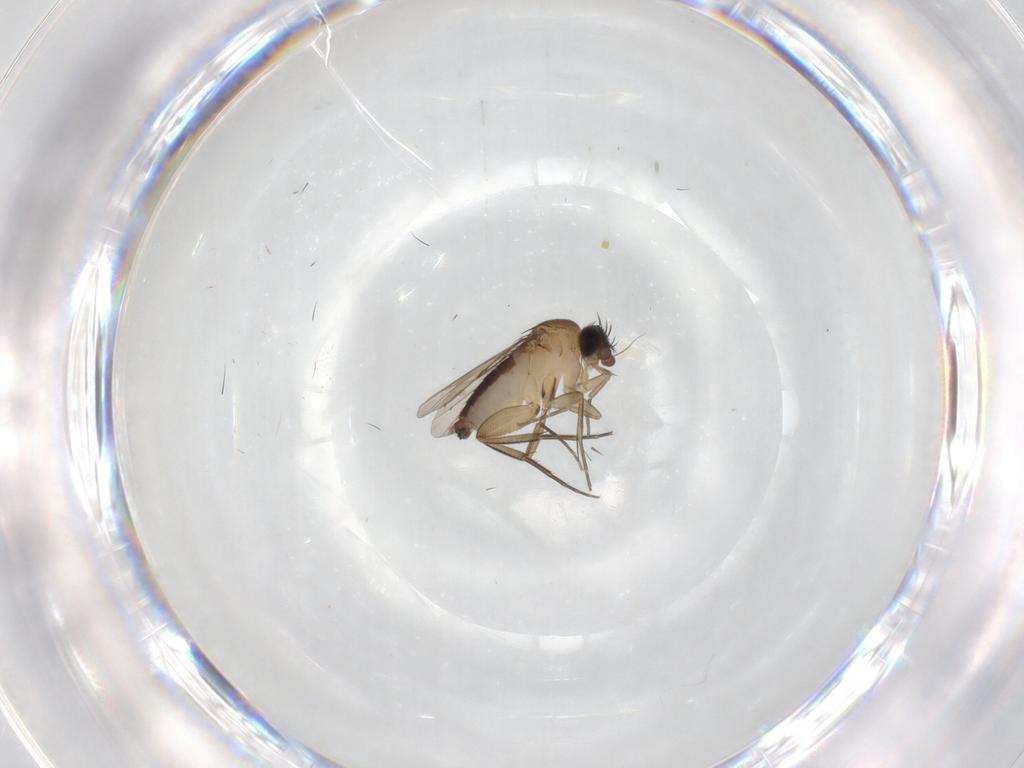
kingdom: Animalia
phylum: Arthropoda
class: Insecta
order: Diptera
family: Phoridae
